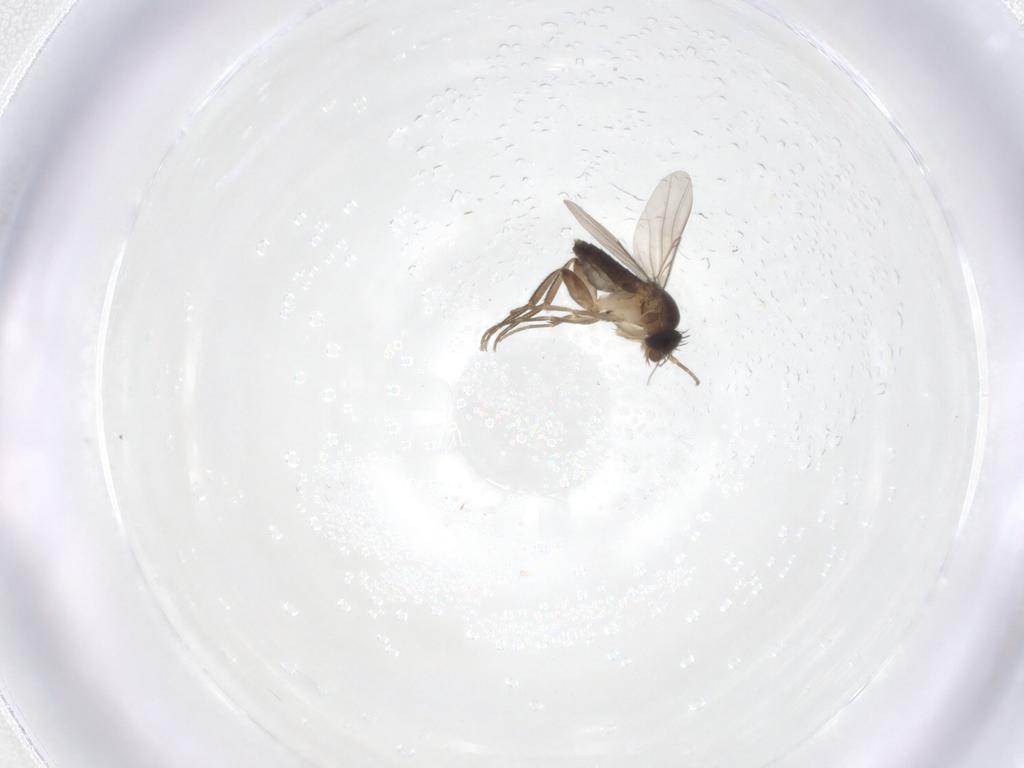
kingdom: Animalia
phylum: Arthropoda
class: Insecta
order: Diptera
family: Phoridae
